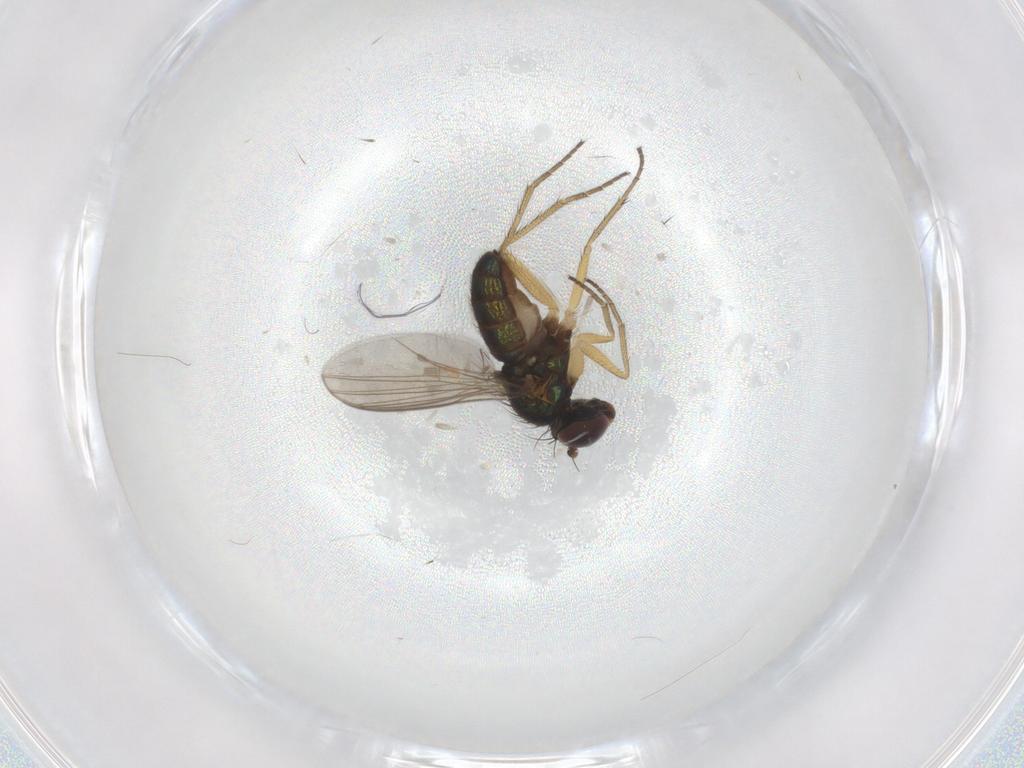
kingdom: Animalia
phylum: Arthropoda
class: Insecta
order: Diptera
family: Dolichopodidae
